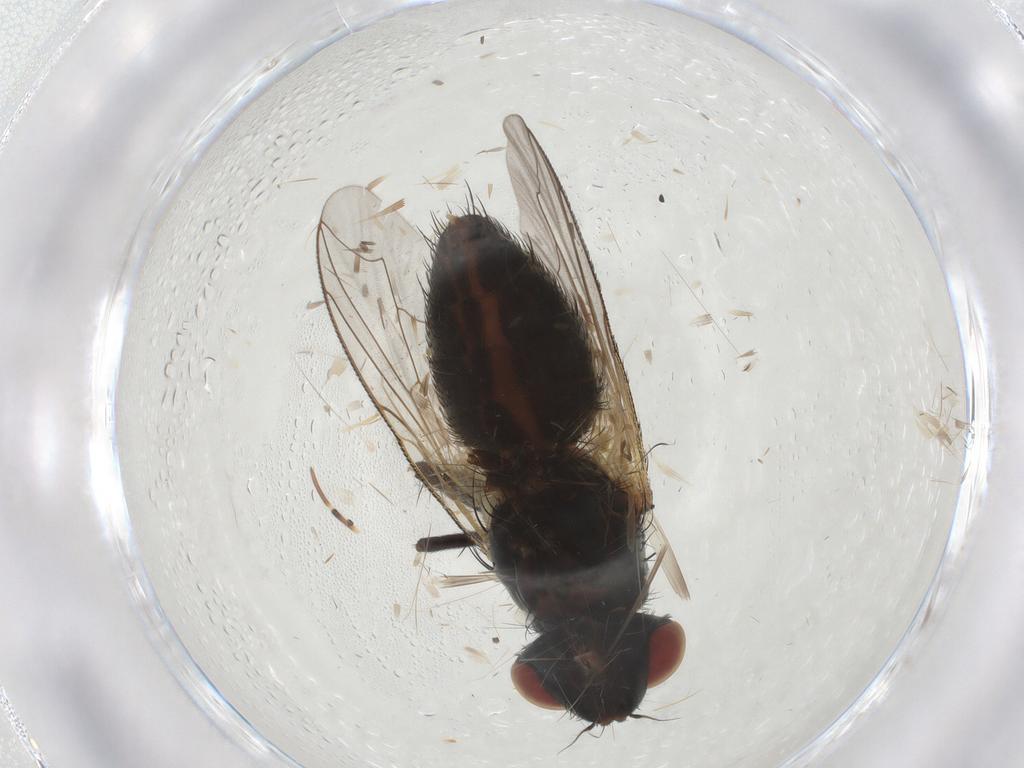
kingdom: Animalia
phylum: Arthropoda
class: Insecta
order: Diptera
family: Sarcophagidae
